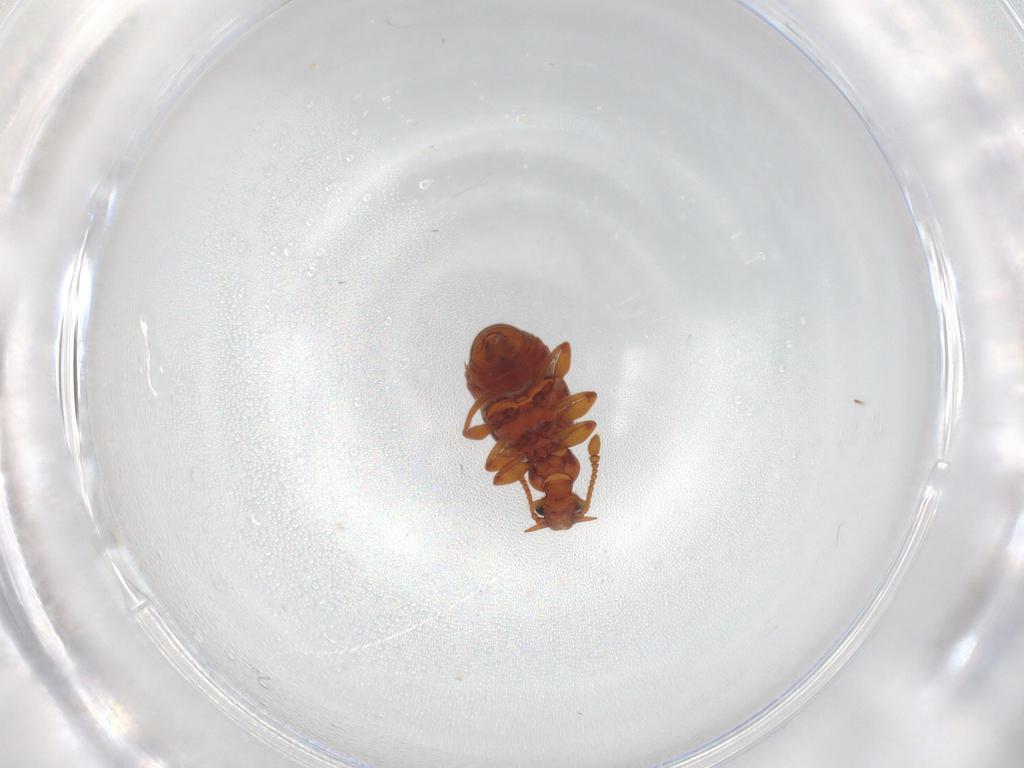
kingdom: Animalia
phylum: Arthropoda
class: Insecta
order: Coleoptera
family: Staphylinidae
